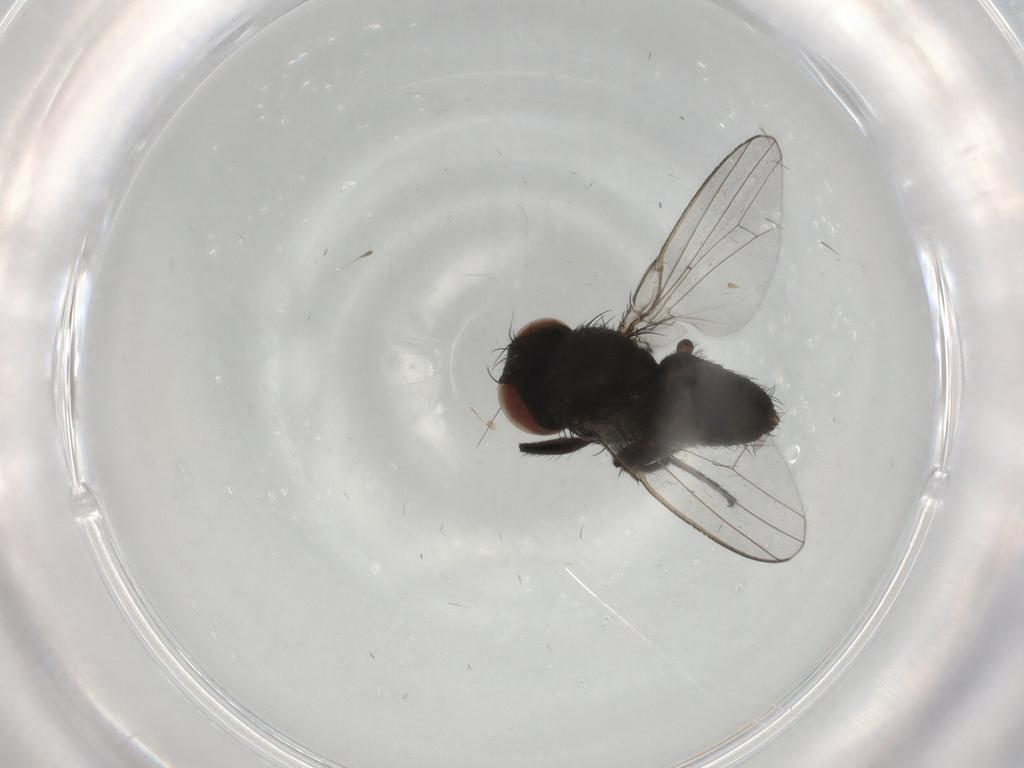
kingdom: Animalia
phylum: Arthropoda
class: Insecta
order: Diptera
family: Milichiidae
